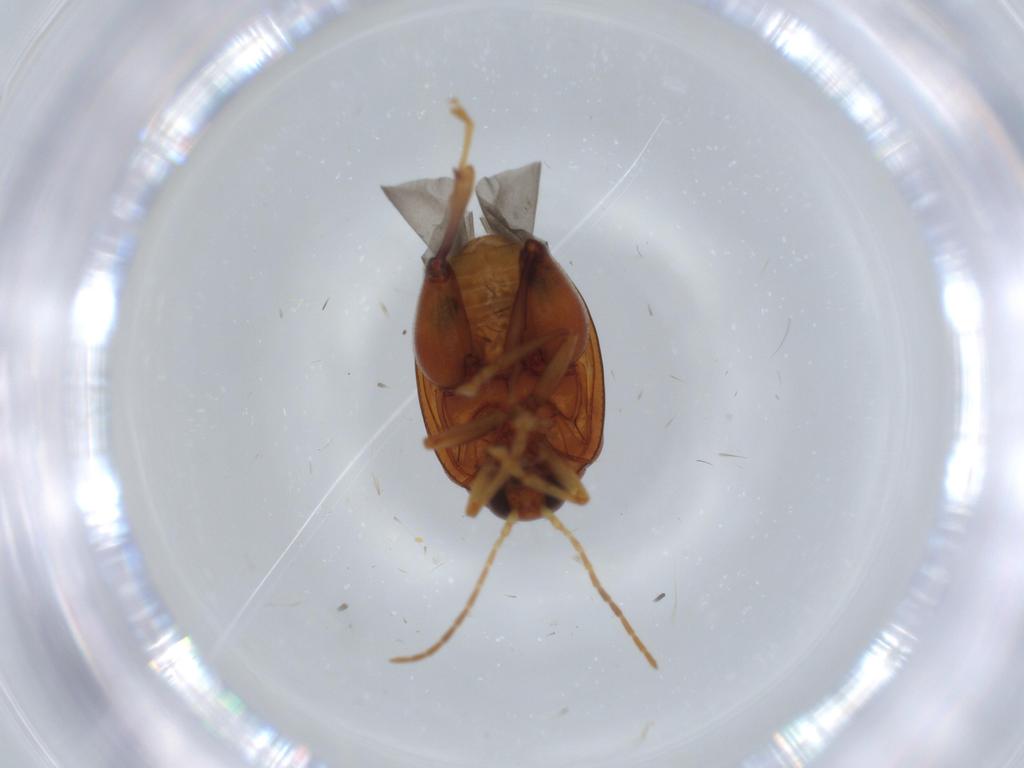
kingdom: Animalia
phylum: Arthropoda
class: Insecta
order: Coleoptera
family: Chrysomelidae
